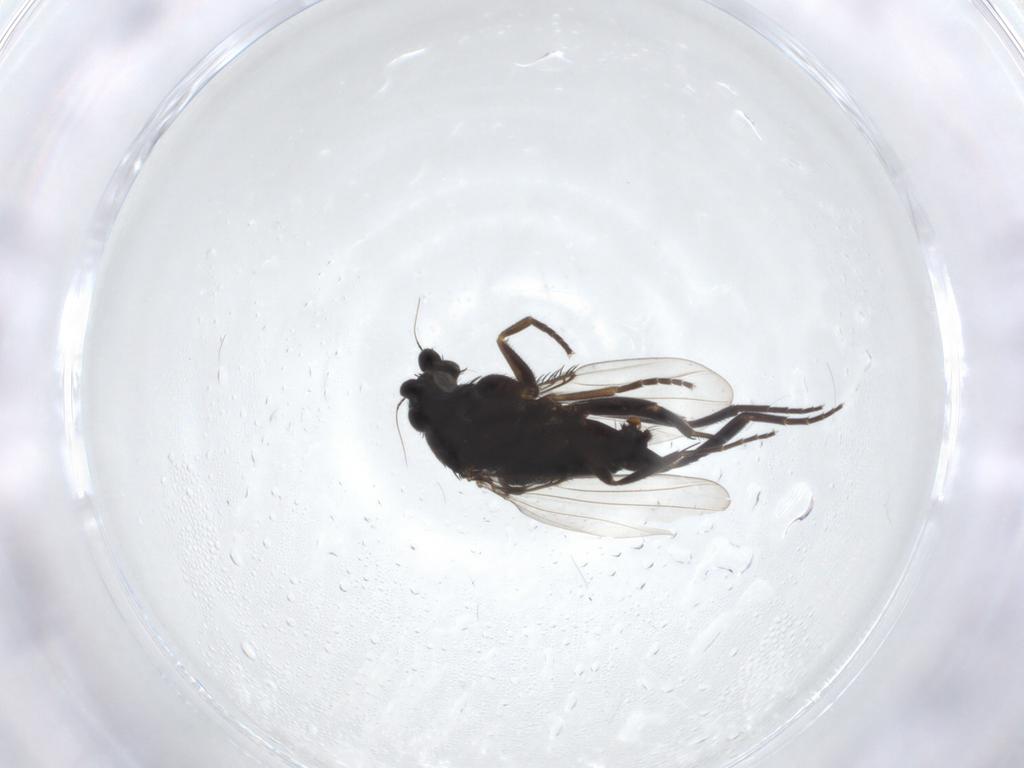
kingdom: Animalia
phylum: Arthropoda
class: Insecta
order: Diptera
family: Phoridae
